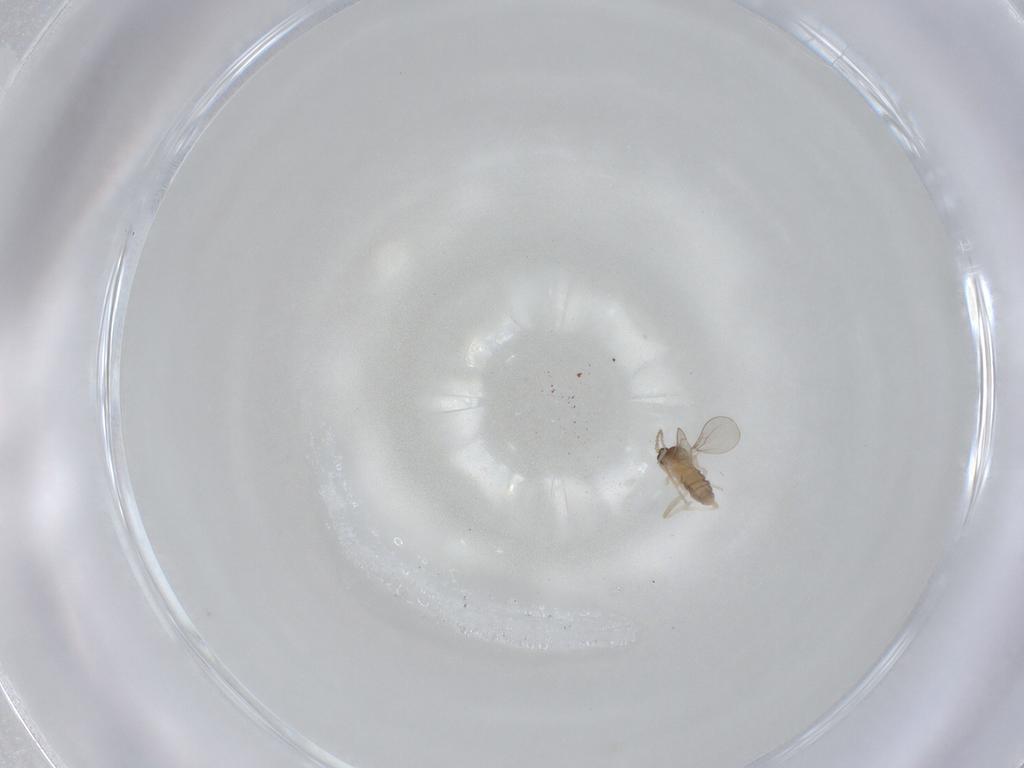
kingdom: Animalia
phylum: Arthropoda
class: Insecta
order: Diptera
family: Cecidomyiidae
